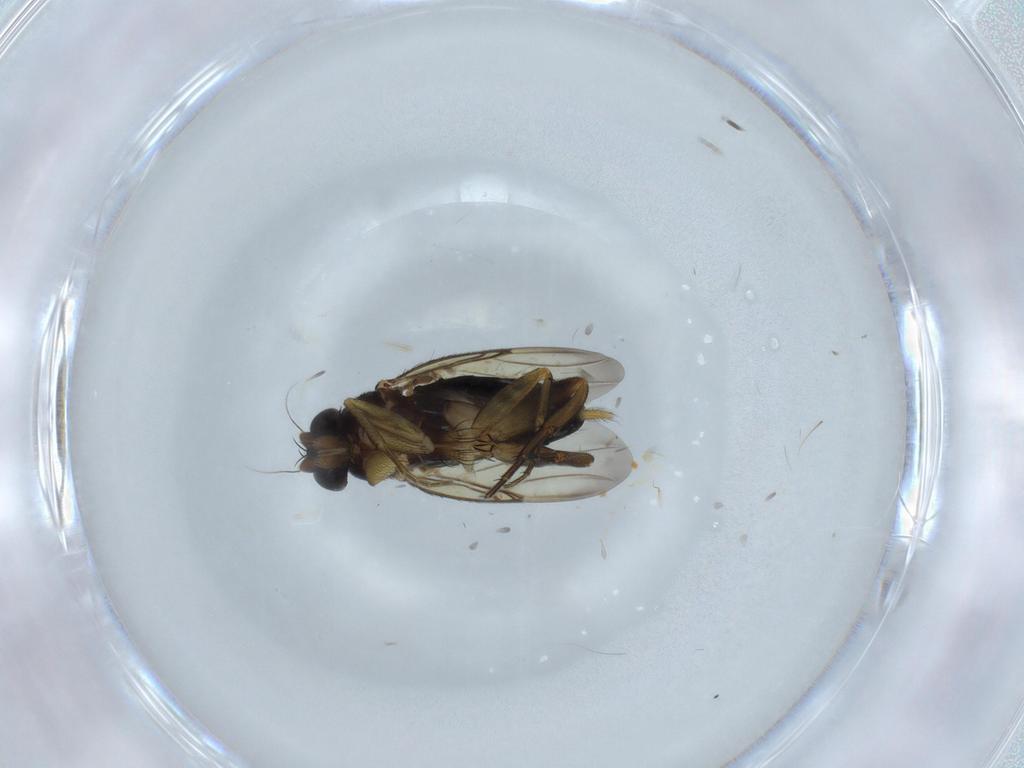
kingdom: Animalia
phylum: Arthropoda
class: Insecta
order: Diptera
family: Phoridae
